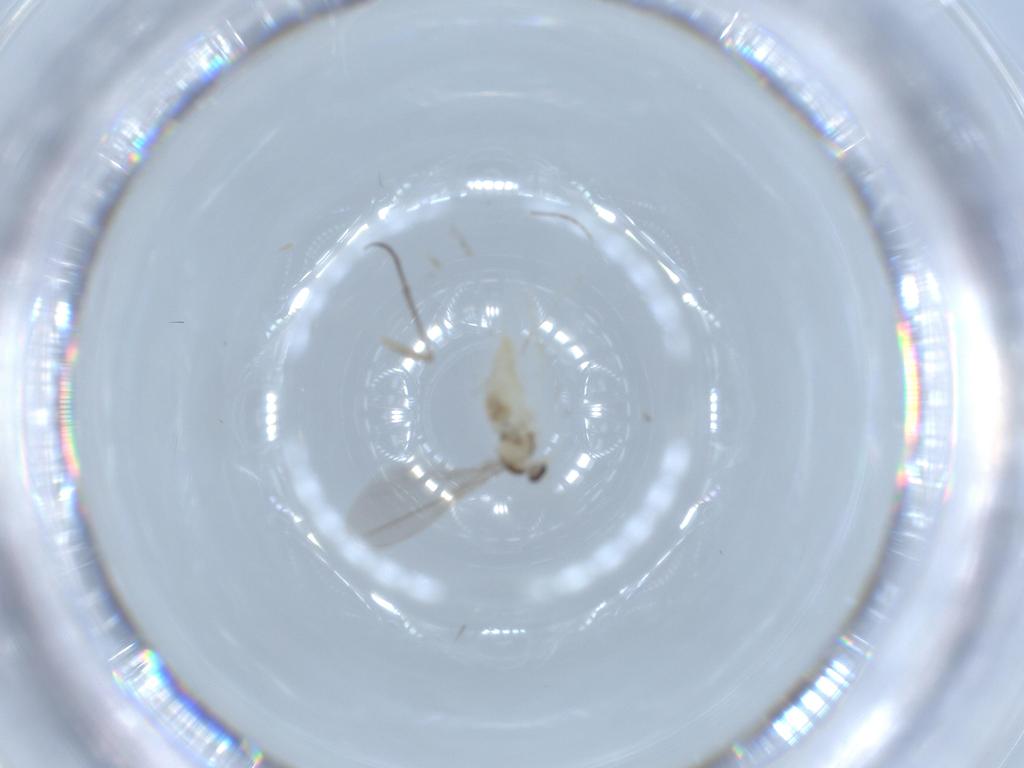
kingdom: Animalia
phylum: Arthropoda
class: Insecta
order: Diptera
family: Cecidomyiidae
